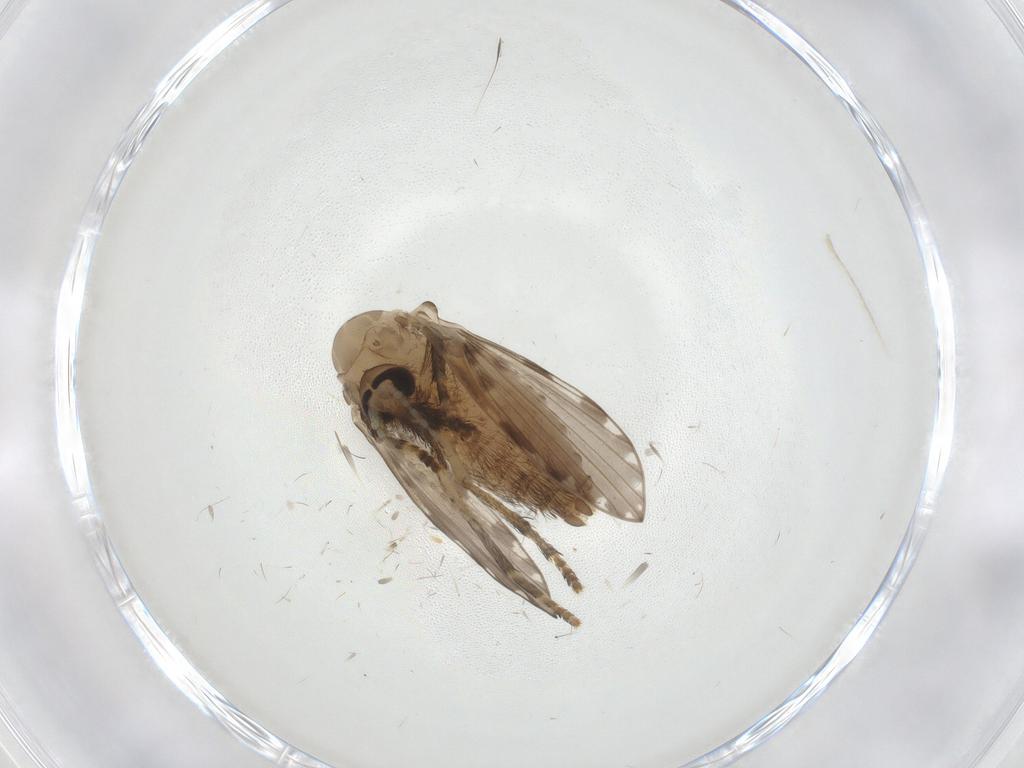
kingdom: Animalia
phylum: Arthropoda
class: Insecta
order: Diptera
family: Psychodidae
